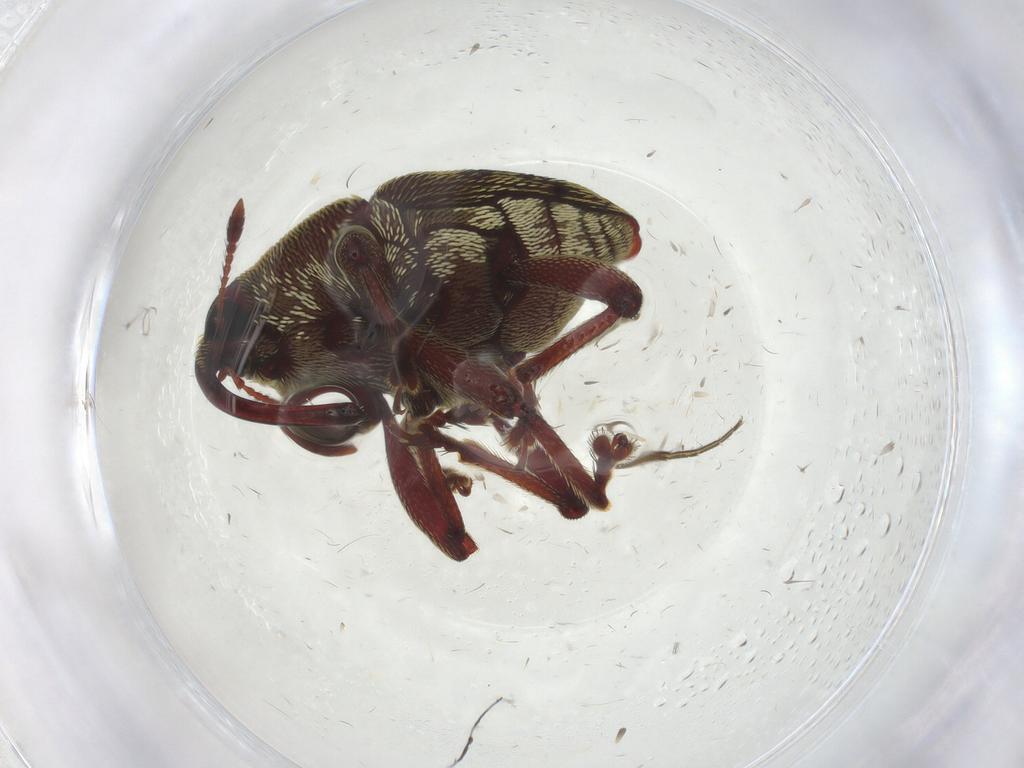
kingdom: Animalia
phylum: Arthropoda
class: Insecta
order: Coleoptera
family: Curculionidae
